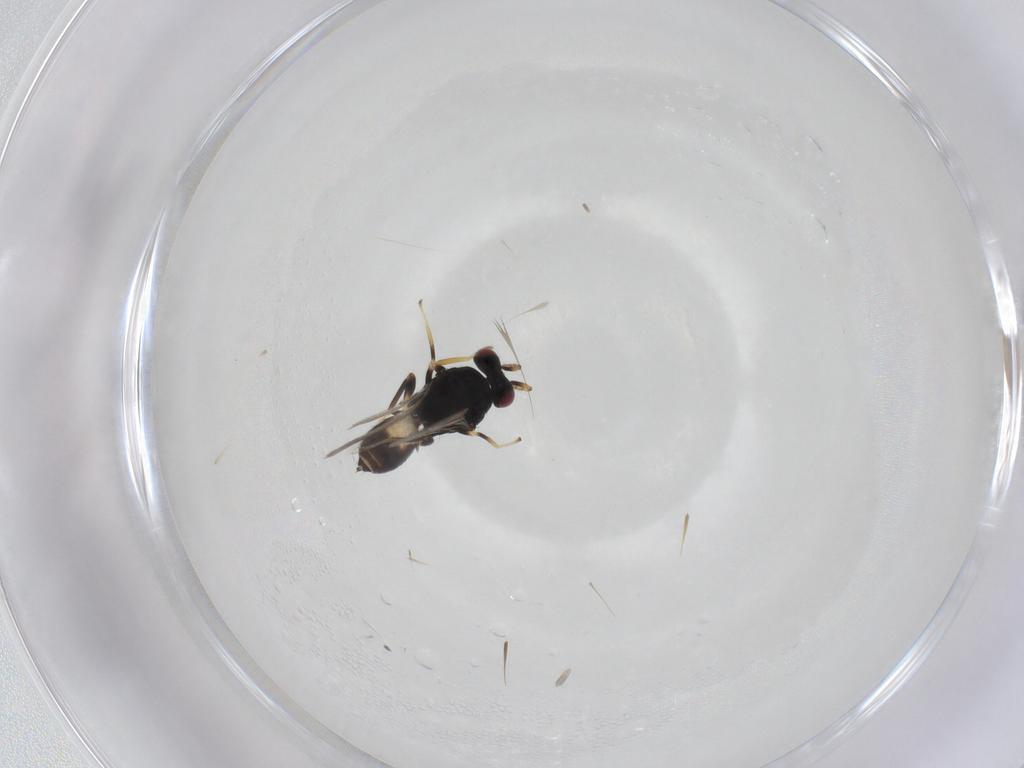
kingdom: Animalia
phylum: Arthropoda
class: Insecta
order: Hymenoptera
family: Eulophidae
